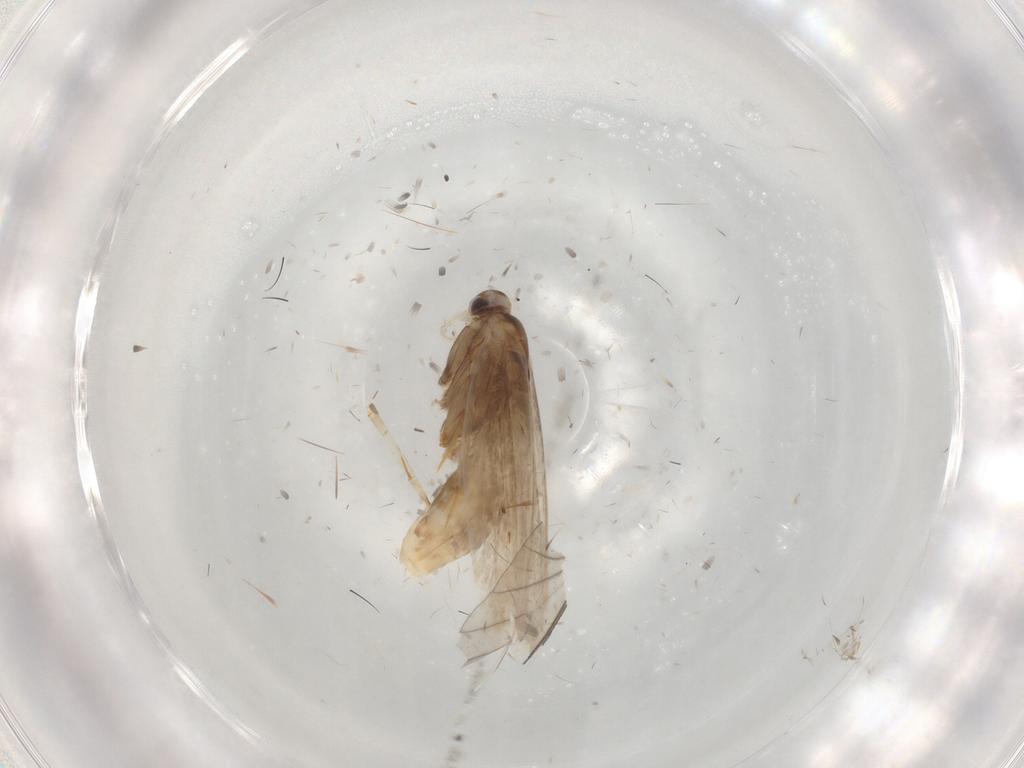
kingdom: Animalia
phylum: Arthropoda
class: Insecta
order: Lepidoptera
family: Gracillariidae
